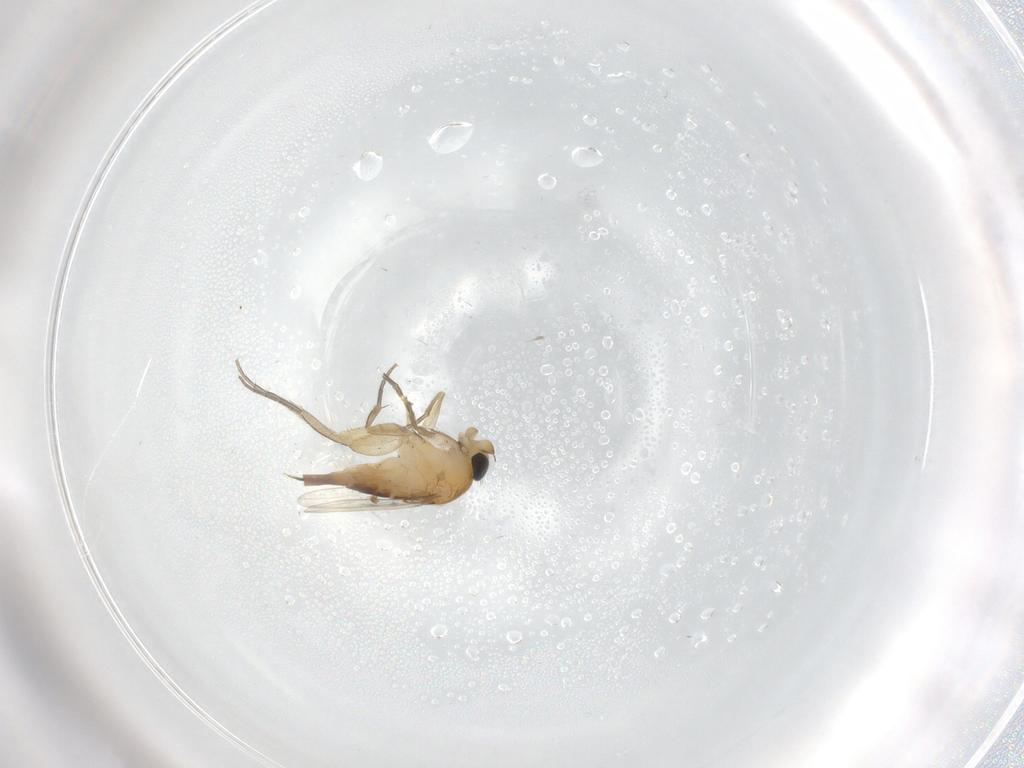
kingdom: Animalia
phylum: Arthropoda
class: Insecta
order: Diptera
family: Phoridae
